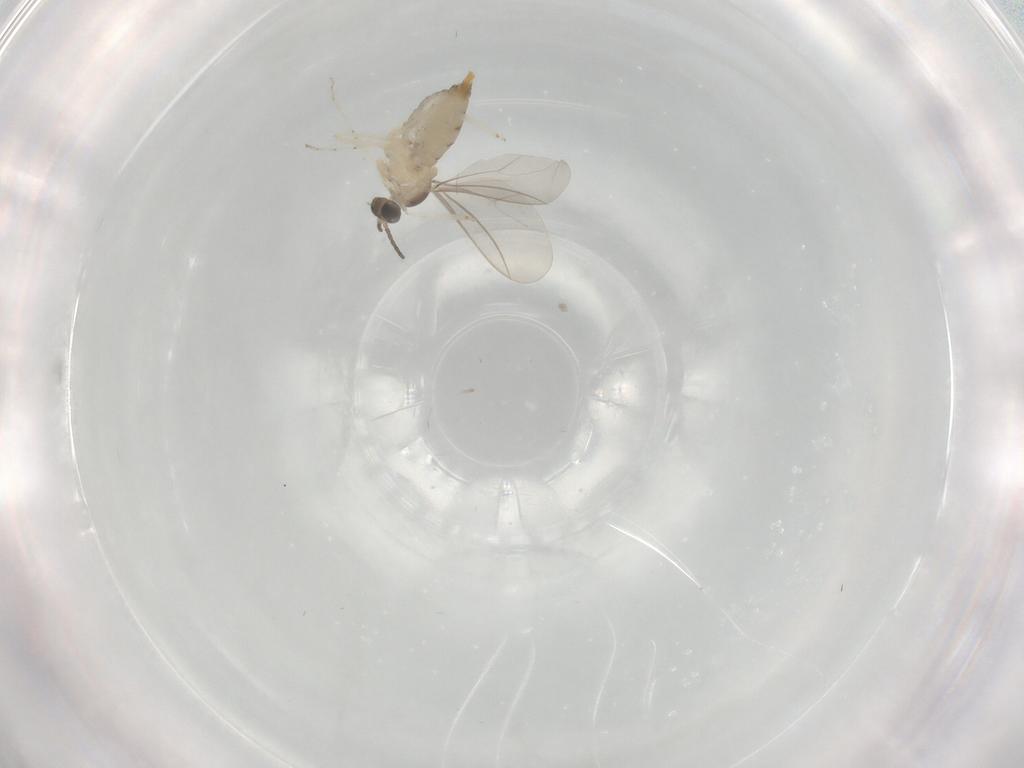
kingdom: Animalia
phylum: Arthropoda
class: Insecta
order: Diptera
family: Cecidomyiidae
